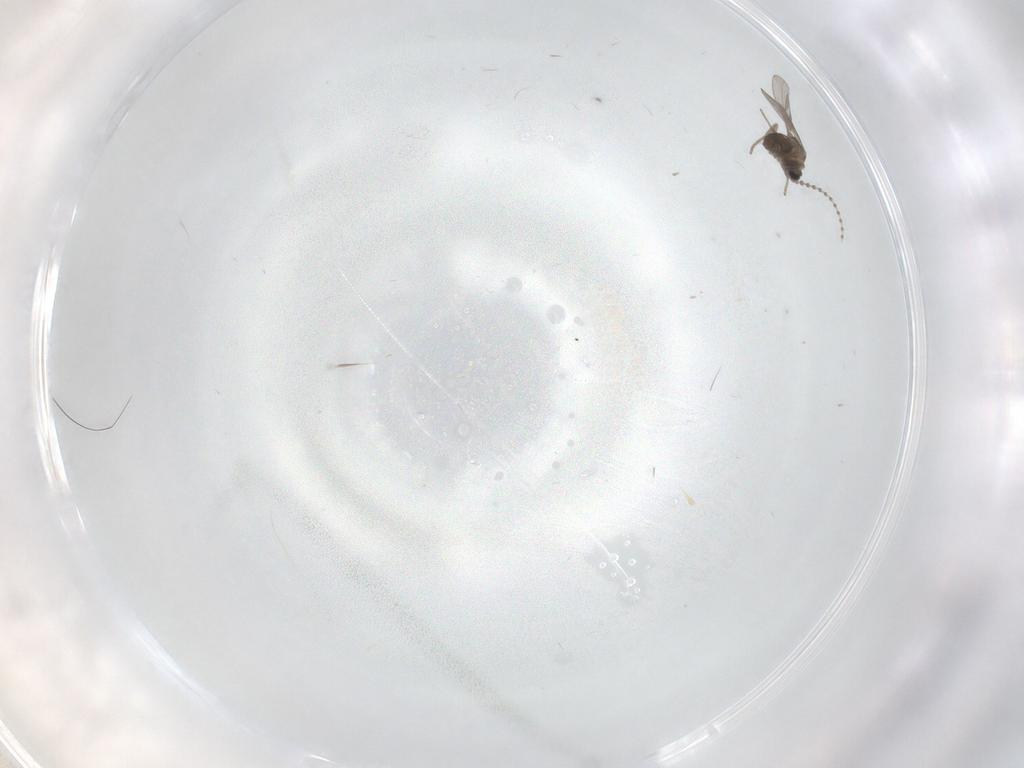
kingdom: Animalia
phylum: Arthropoda
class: Insecta
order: Diptera
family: Cecidomyiidae
